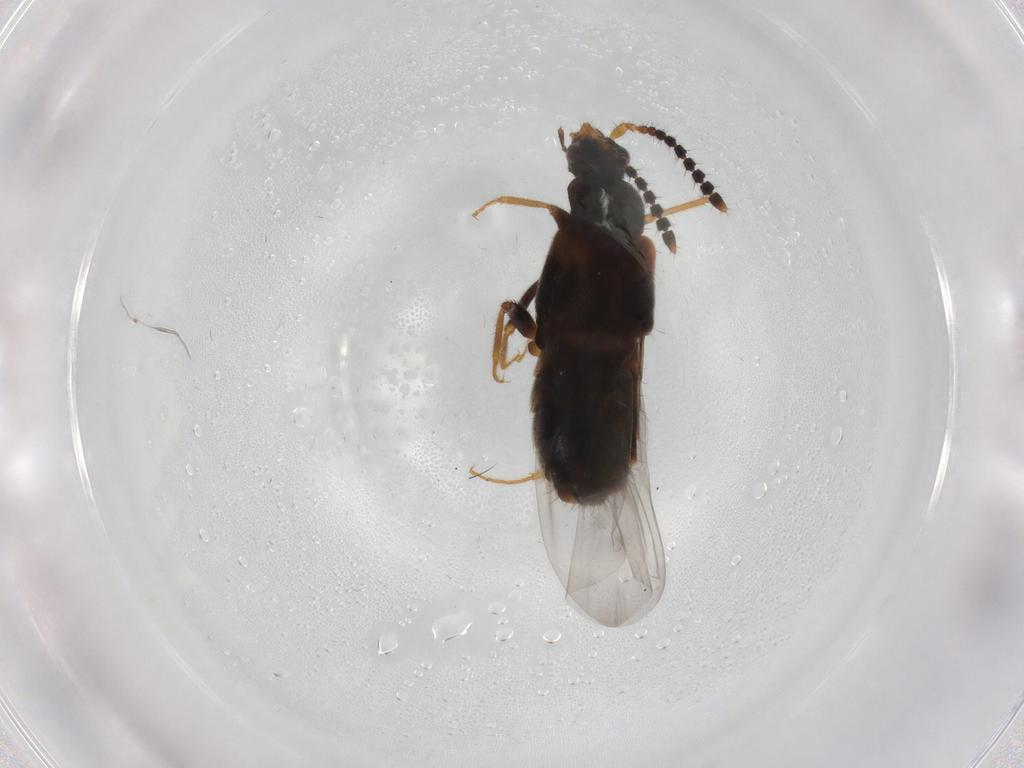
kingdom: Animalia
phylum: Arthropoda
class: Insecta
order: Coleoptera
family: Staphylinidae
